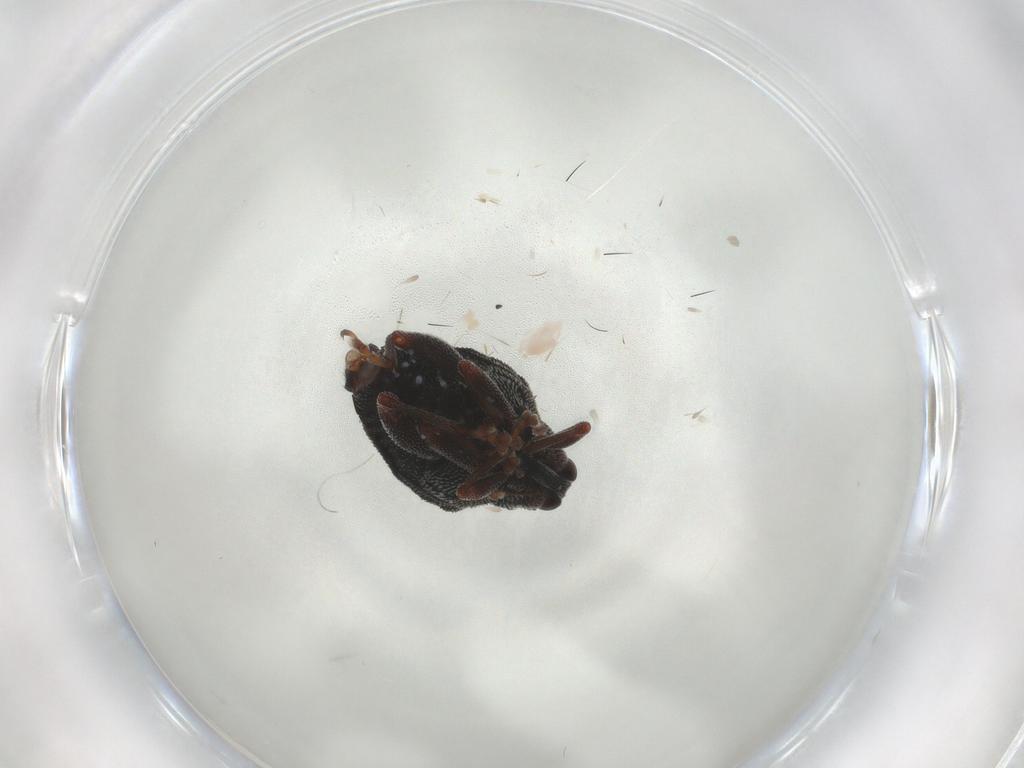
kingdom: Animalia
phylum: Arthropoda
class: Insecta
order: Coleoptera
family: Curculionidae
